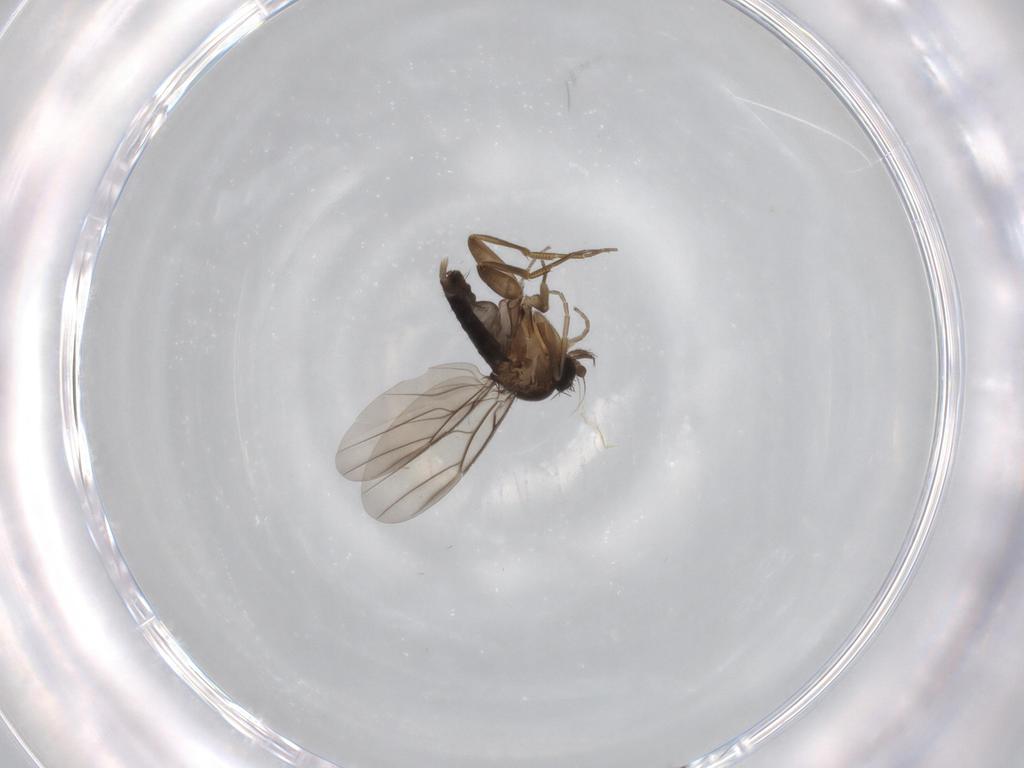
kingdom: Animalia
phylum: Arthropoda
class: Insecta
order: Diptera
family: Phoridae
